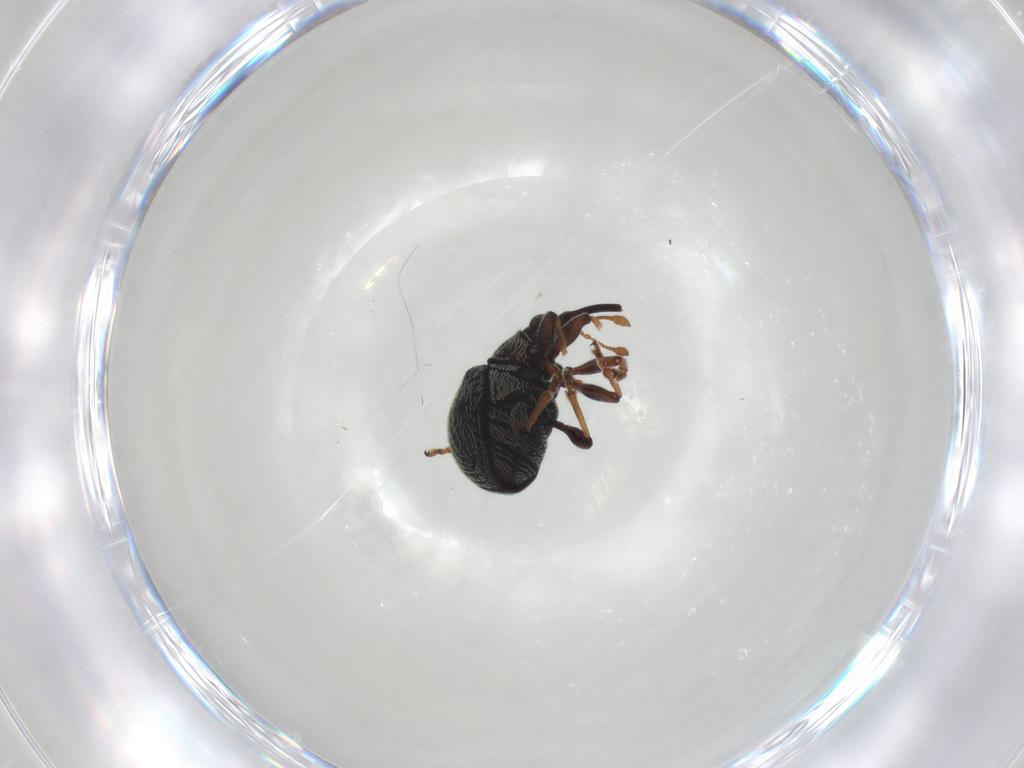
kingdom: Animalia
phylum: Arthropoda
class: Insecta
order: Coleoptera
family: Brentidae
